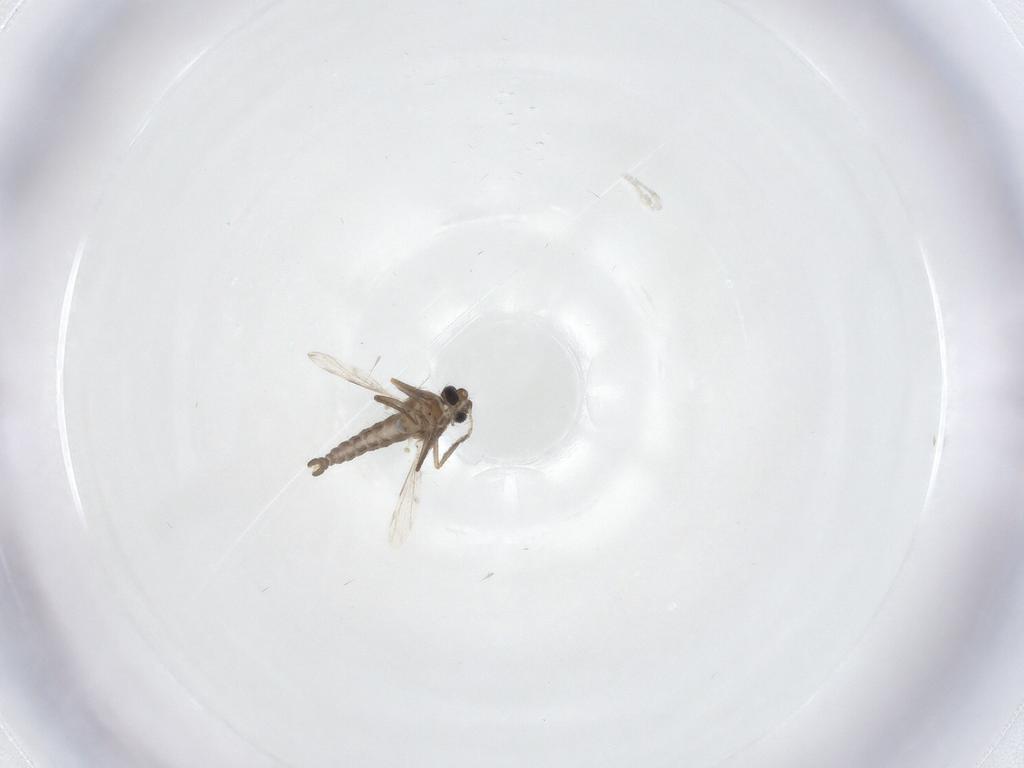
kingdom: Animalia
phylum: Arthropoda
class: Insecta
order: Diptera
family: Ceratopogonidae
